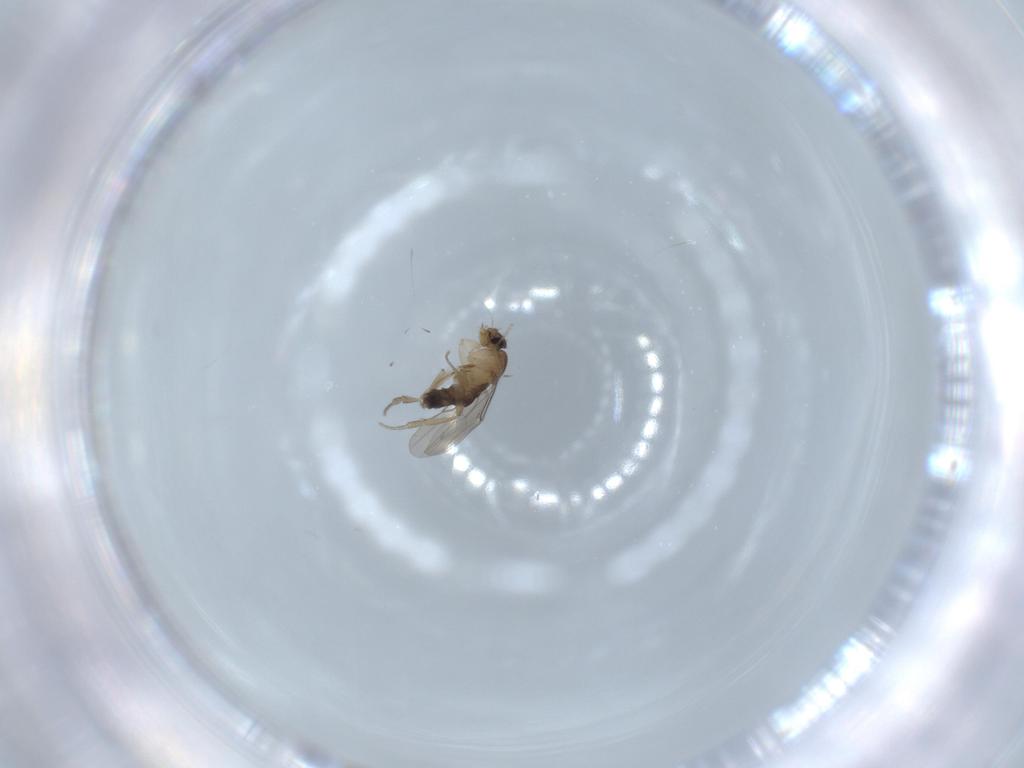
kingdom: Animalia
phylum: Arthropoda
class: Insecta
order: Diptera
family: Phoridae
